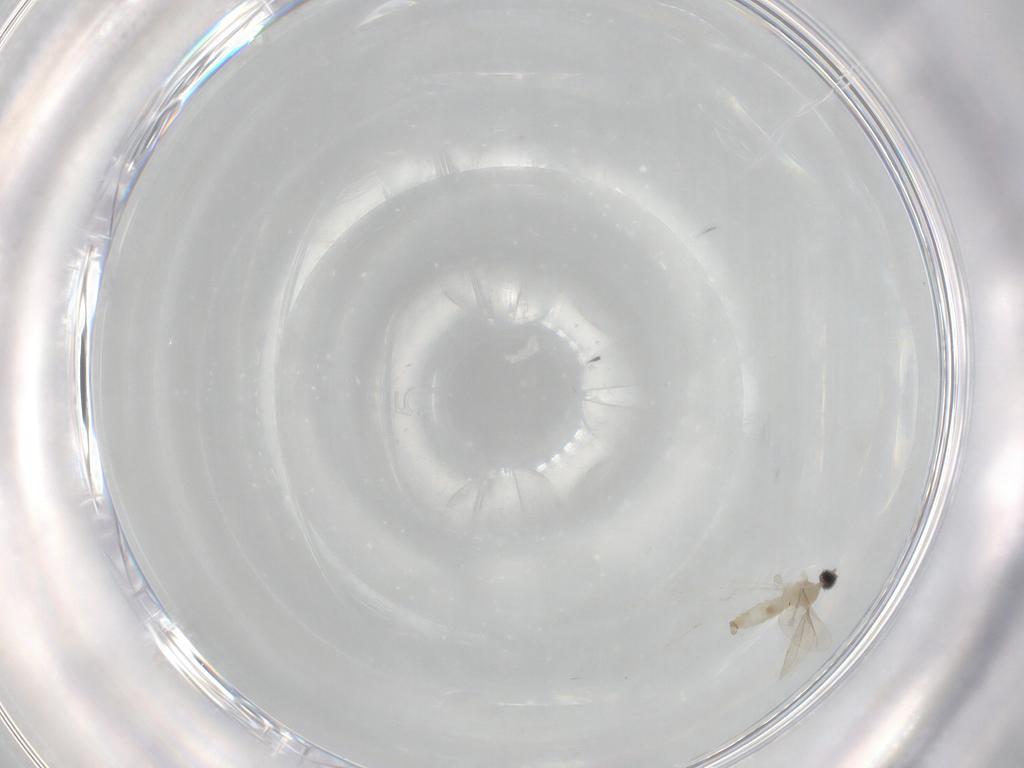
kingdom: Animalia
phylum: Arthropoda
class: Insecta
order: Diptera
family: Cecidomyiidae
